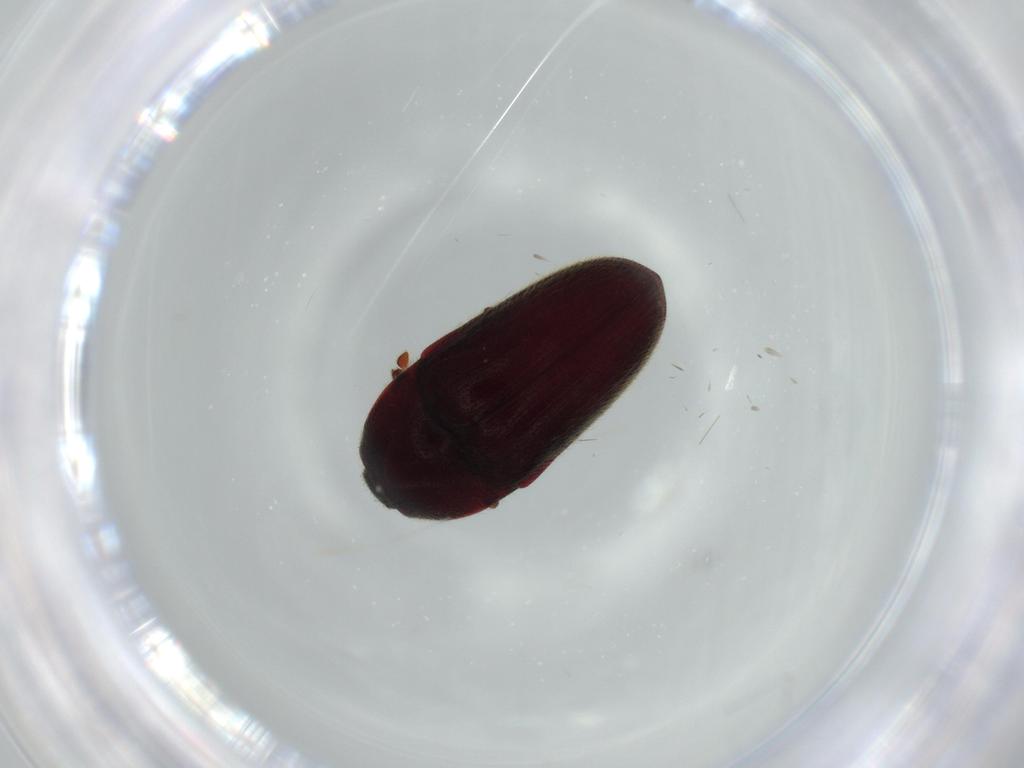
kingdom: Animalia
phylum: Arthropoda
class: Insecta
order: Coleoptera
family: Throscidae
